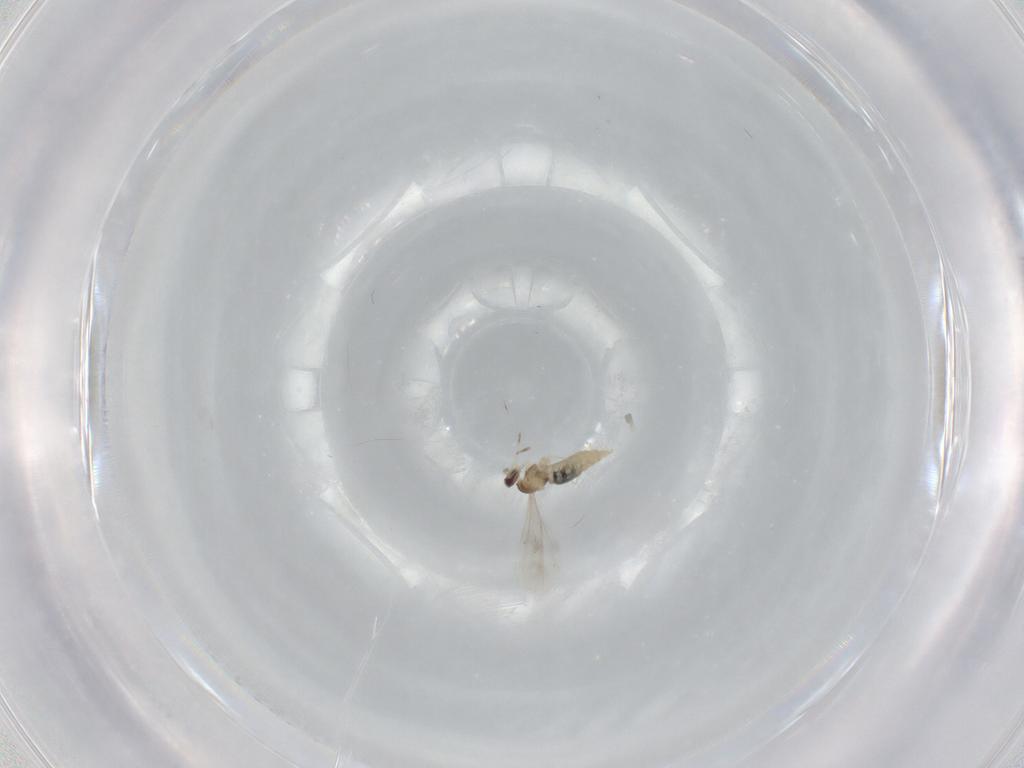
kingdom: Animalia
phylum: Arthropoda
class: Insecta
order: Diptera
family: Cecidomyiidae
